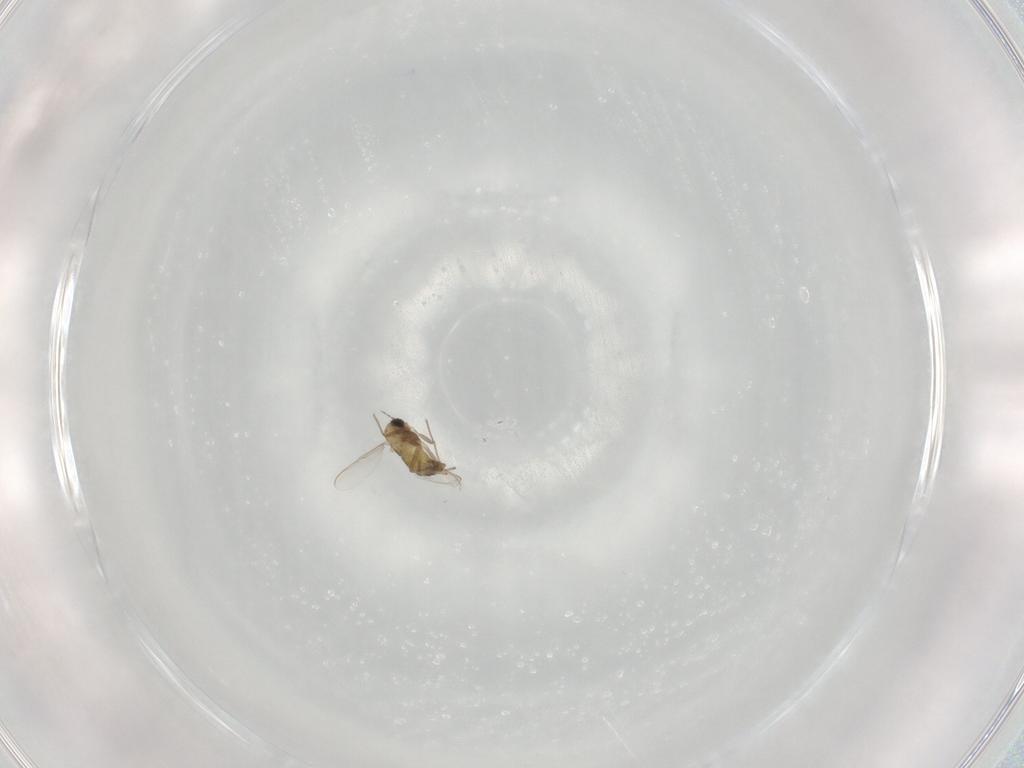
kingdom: Animalia
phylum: Arthropoda
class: Insecta
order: Diptera
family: Chironomidae
